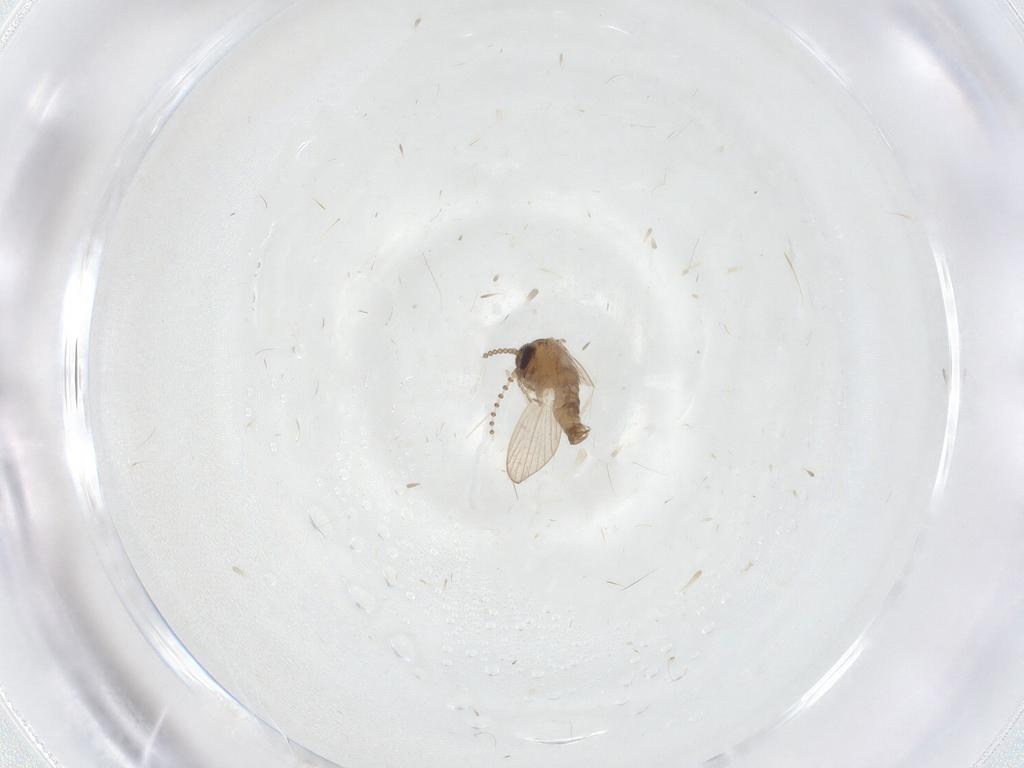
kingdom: Animalia
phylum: Arthropoda
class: Insecta
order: Diptera
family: Psychodidae
